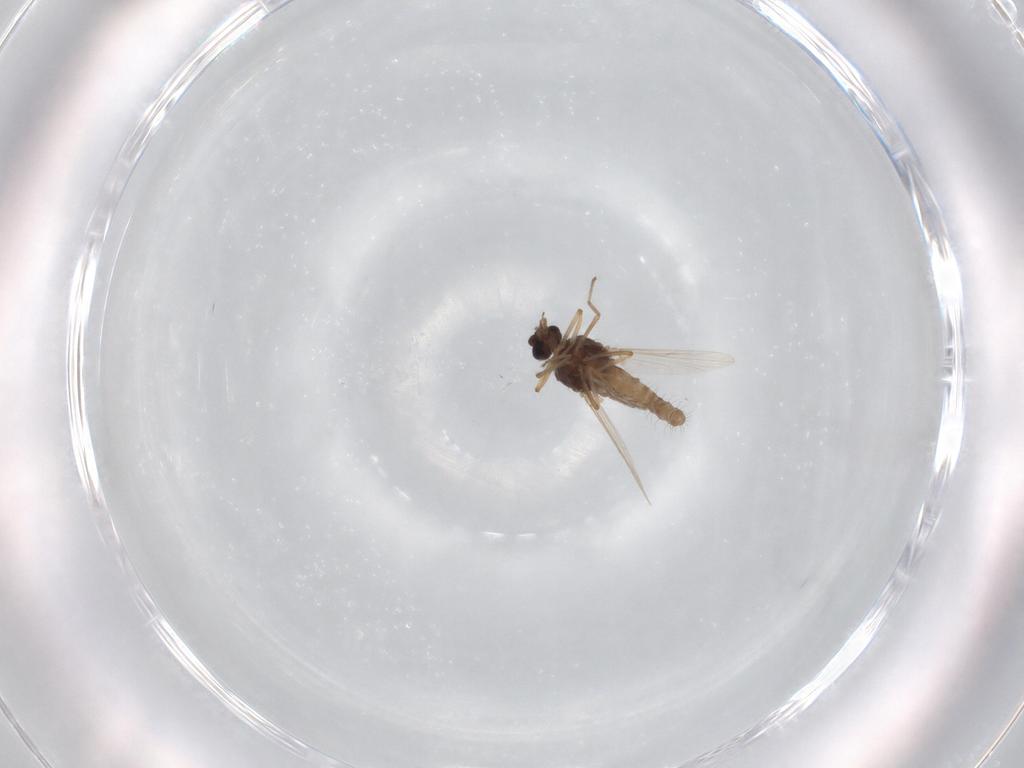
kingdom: Animalia
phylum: Arthropoda
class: Insecta
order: Diptera
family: Ceratopogonidae
